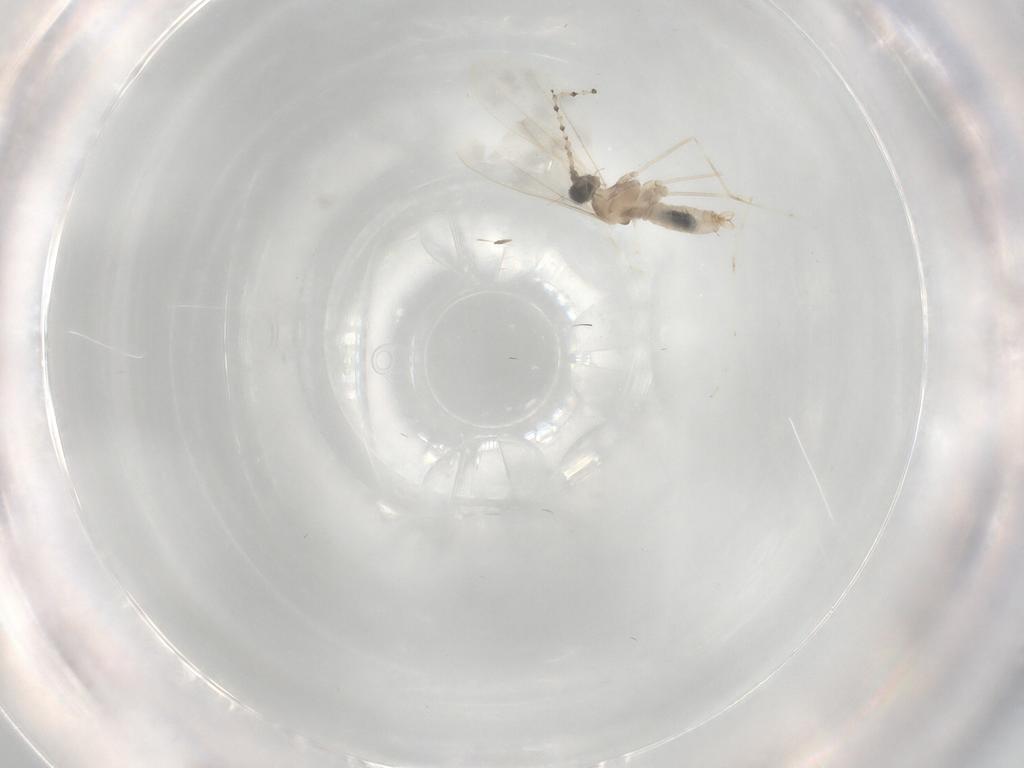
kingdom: Animalia
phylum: Arthropoda
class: Insecta
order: Diptera
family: Cecidomyiidae
